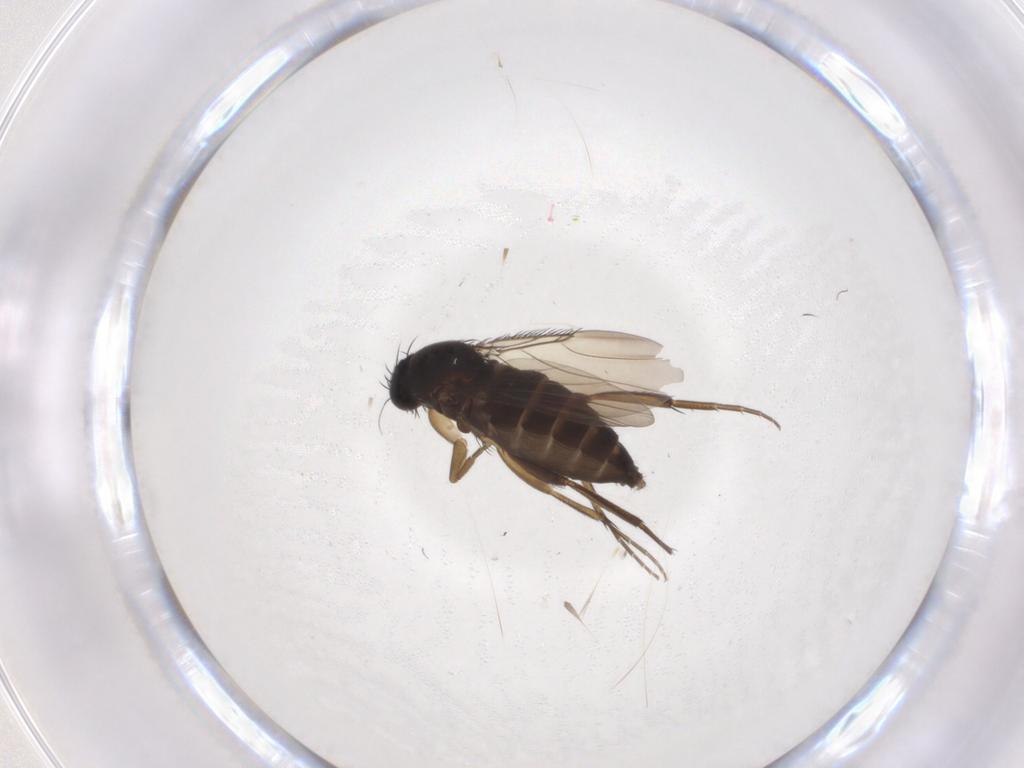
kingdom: Animalia
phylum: Arthropoda
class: Insecta
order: Diptera
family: Phoridae
